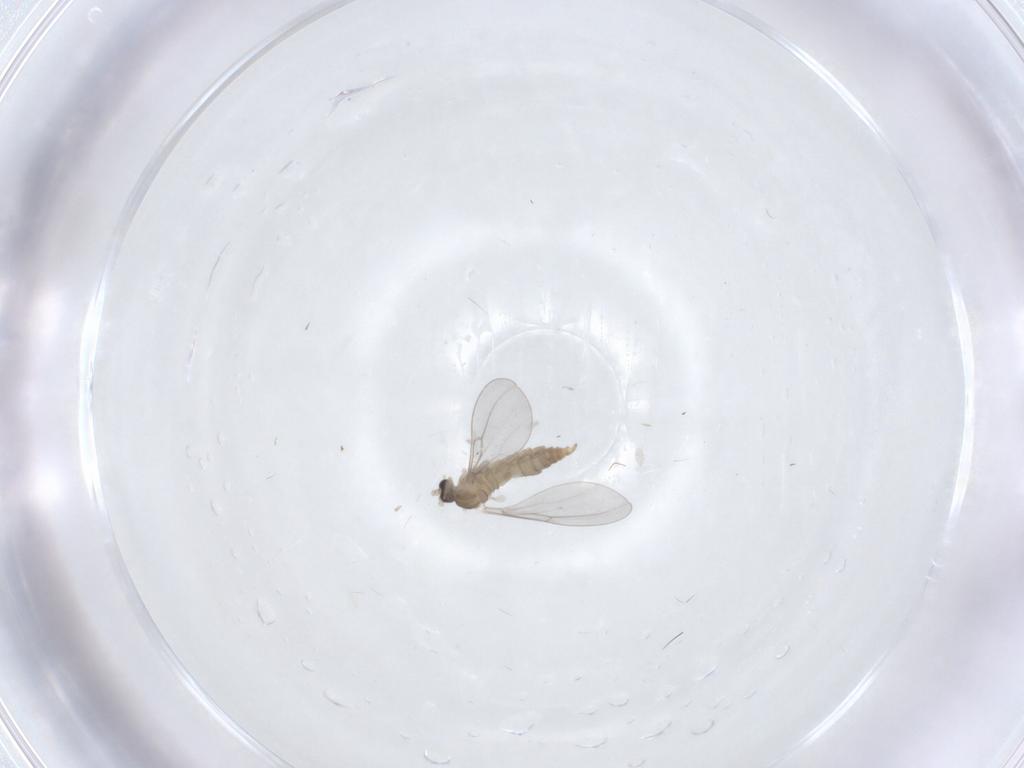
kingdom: Animalia
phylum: Arthropoda
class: Insecta
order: Diptera
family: Cecidomyiidae
